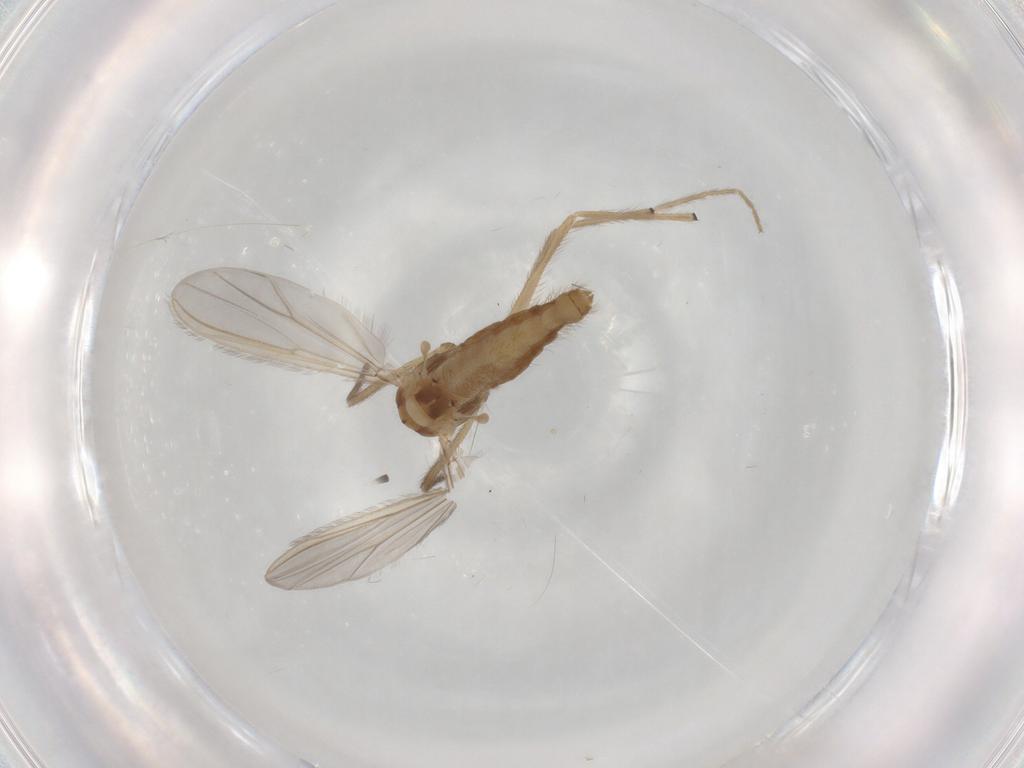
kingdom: Animalia
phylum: Arthropoda
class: Insecta
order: Diptera
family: Chironomidae
